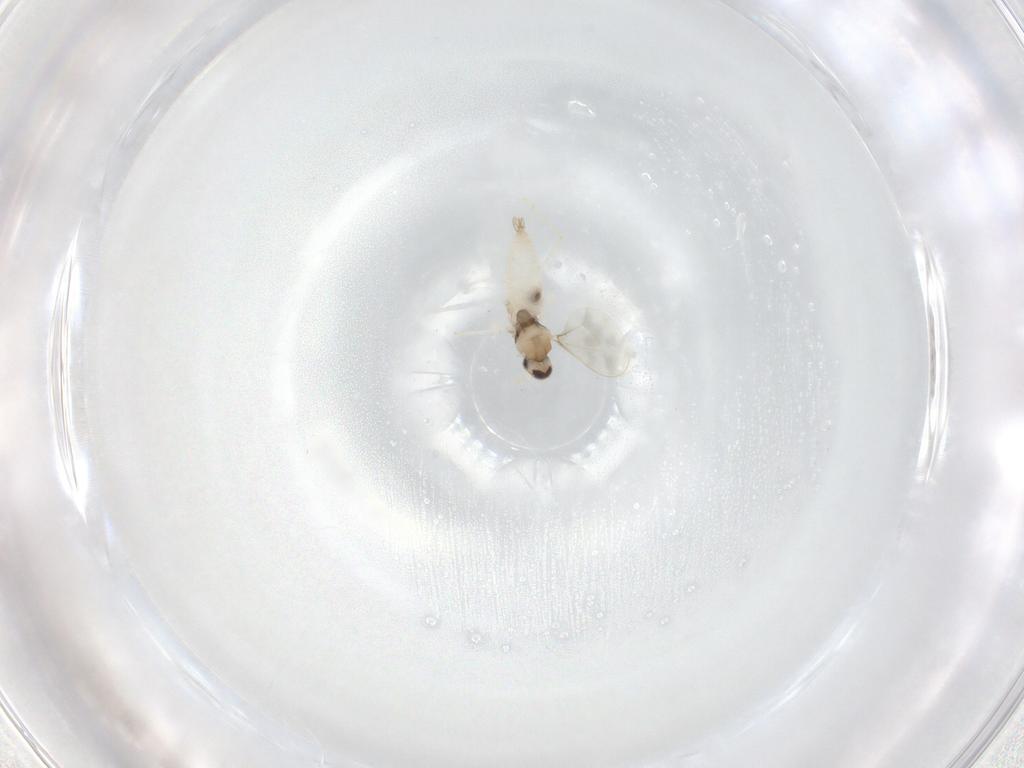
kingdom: Animalia
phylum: Arthropoda
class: Insecta
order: Diptera
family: Cecidomyiidae
